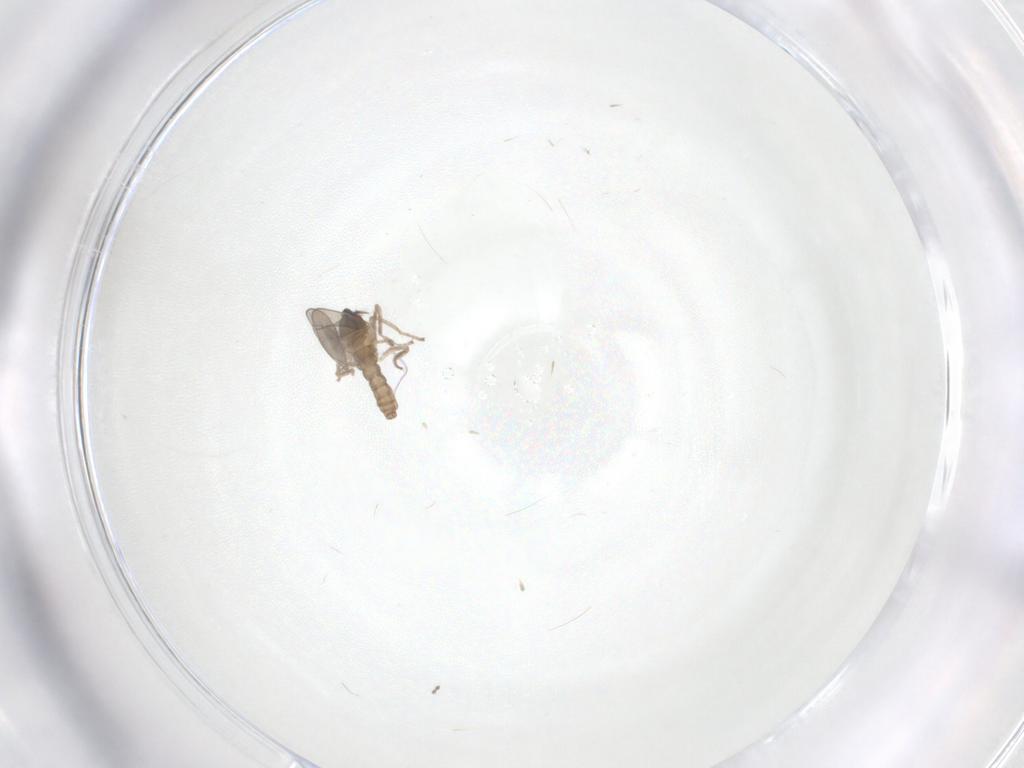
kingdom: Animalia
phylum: Arthropoda
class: Insecta
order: Diptera
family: Cecidomyiidae
